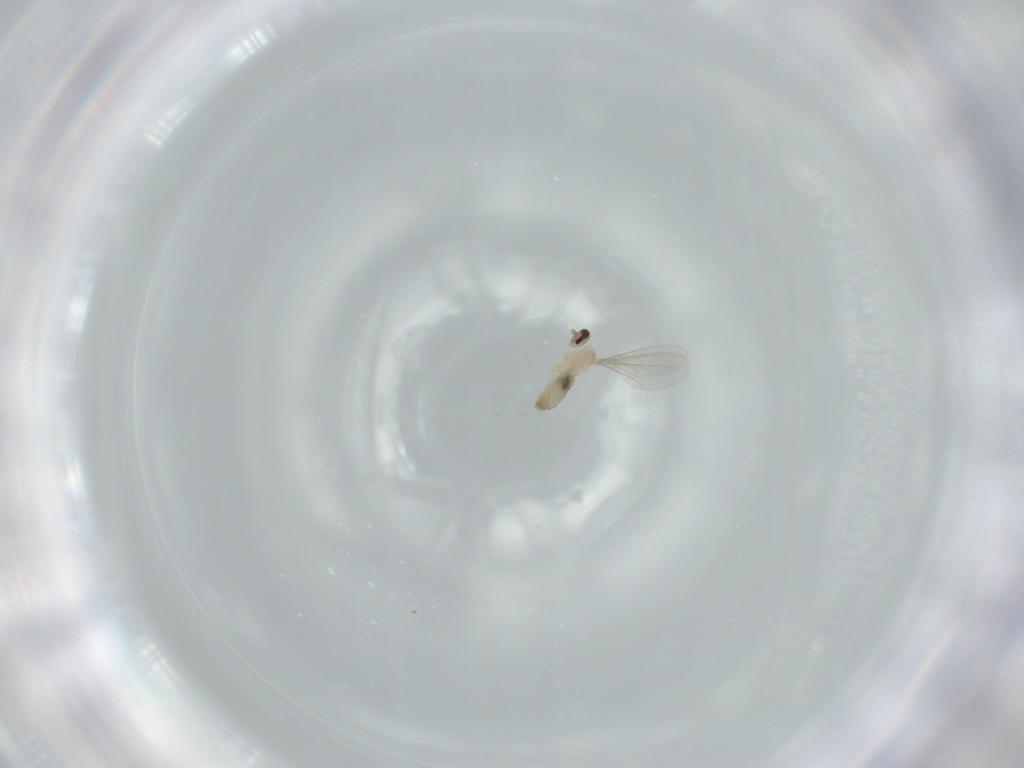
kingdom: Animalia
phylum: Arthropoda
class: Insecta
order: Diptera
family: Cecidomyiidae
